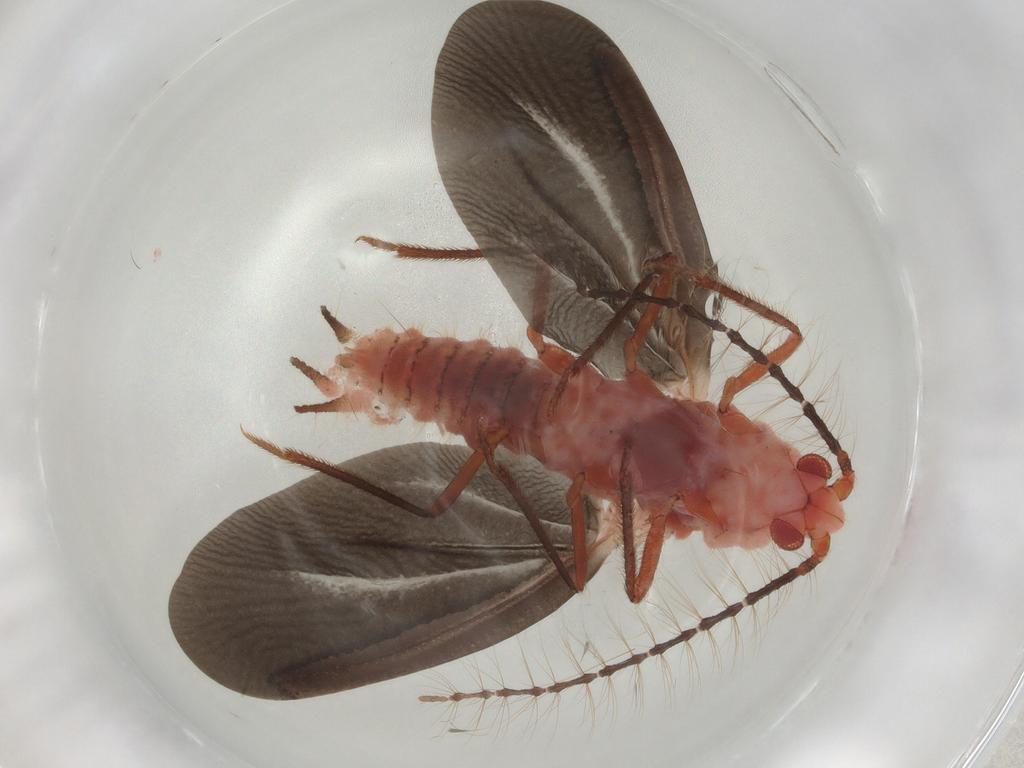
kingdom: Animalia
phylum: Arthropoda
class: Insecta
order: Hemiptera
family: Margarodidae
